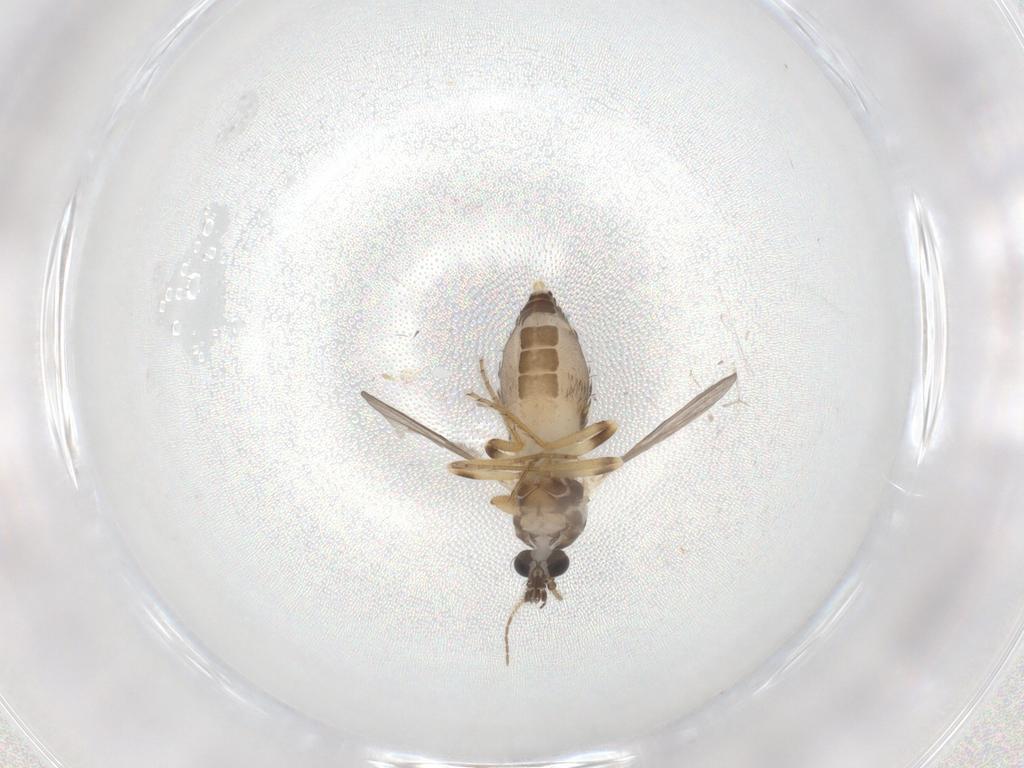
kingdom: Animalia
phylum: Arthropoda
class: Insecta
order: Diptera
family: Ceratopogonidae
